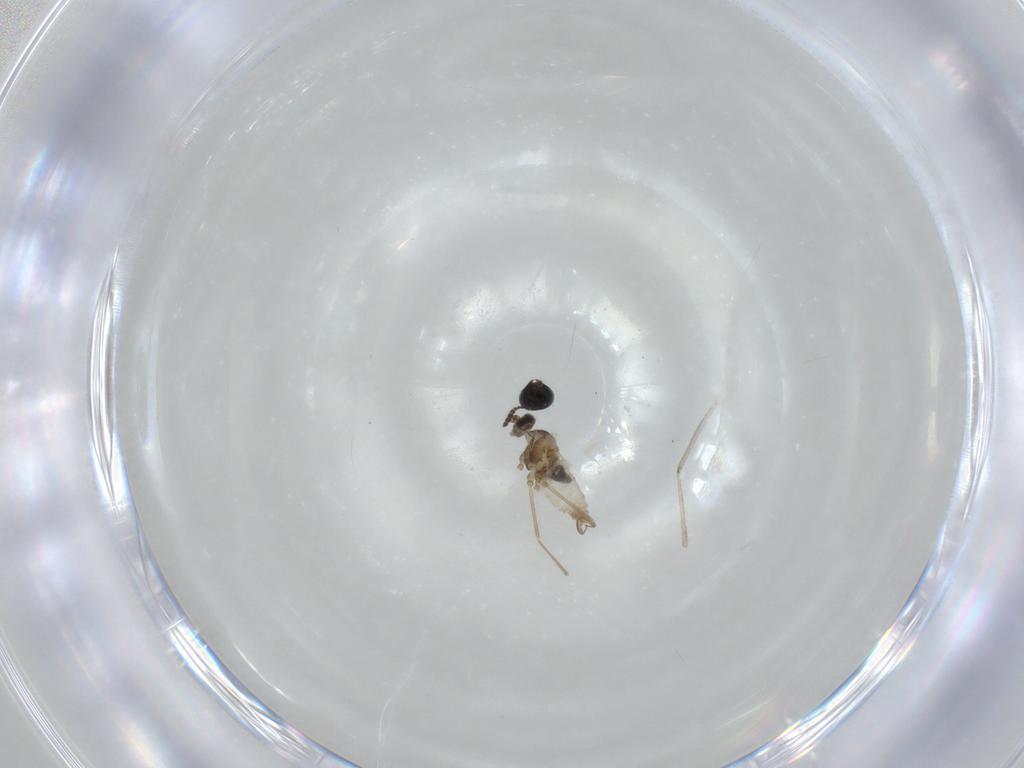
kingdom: Animalia
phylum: Arthropoda
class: Insecta
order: Diptera
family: Cecidomyiidae
